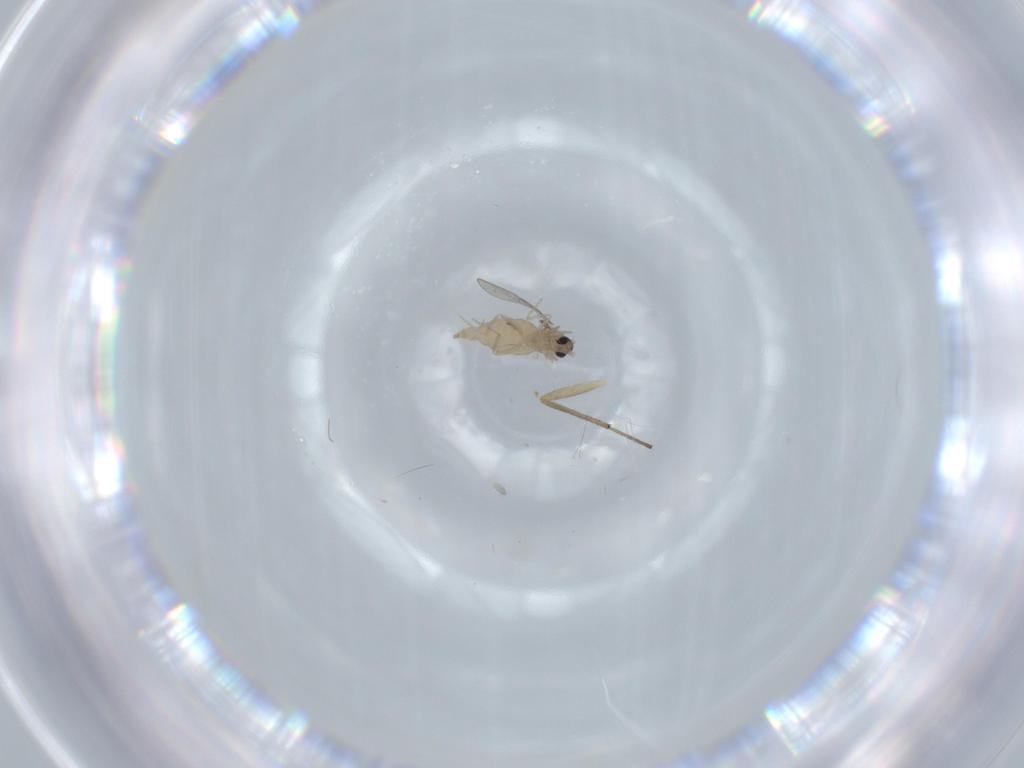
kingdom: Animalia
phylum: Arthropoda
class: Insecta
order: Diptera
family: Cecidomyiidae
